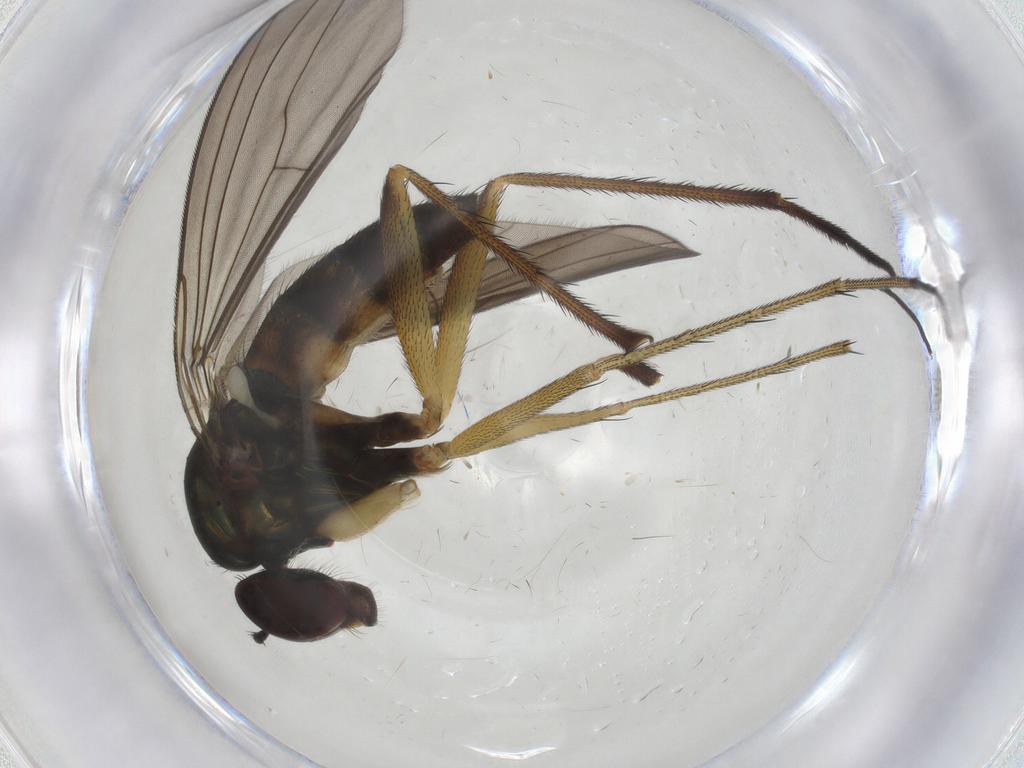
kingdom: Animalia
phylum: Arthropoda
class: Insecta
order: Diptera
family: Dolichopodidae
